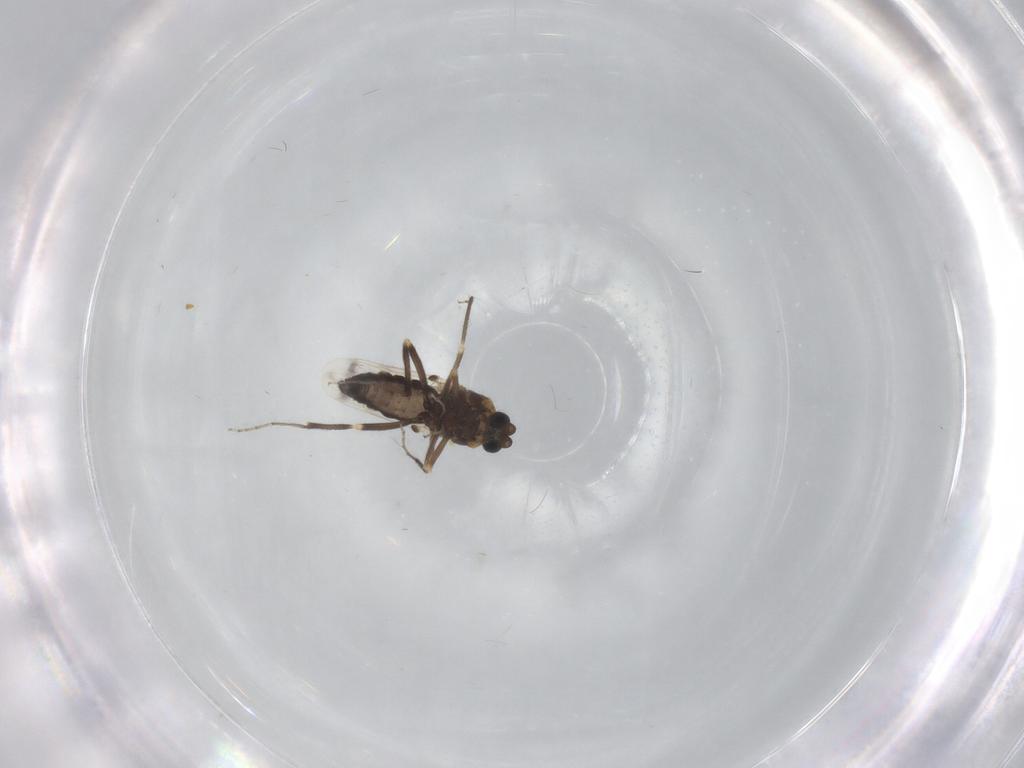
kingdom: Animalia
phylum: Arthropoda
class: Insecta
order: Diptera
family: Ceratopogonidae
